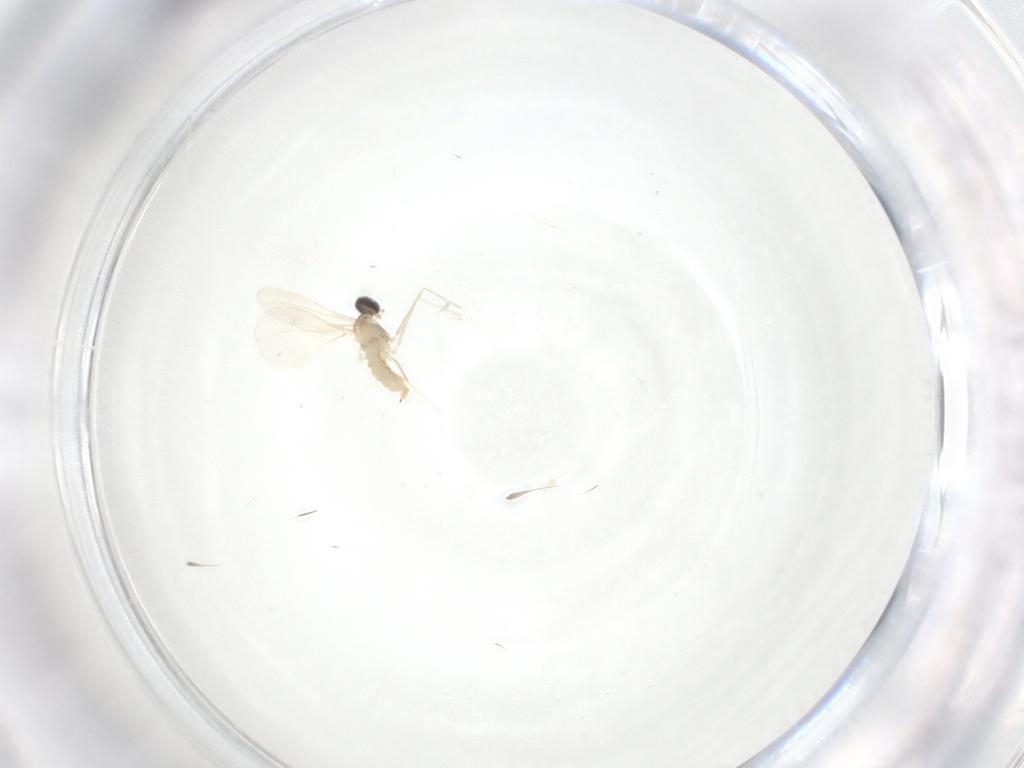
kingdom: Animalia
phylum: Arthropoda
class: Insecta
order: Diptera
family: Cecidomyiidae
